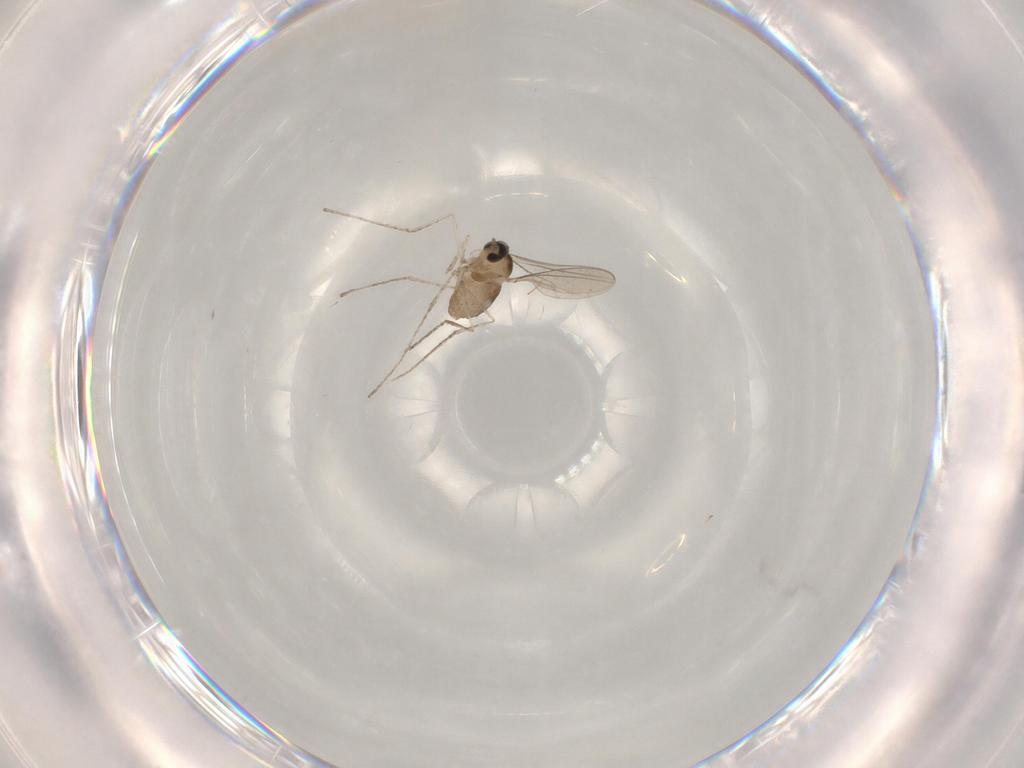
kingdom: Animalia
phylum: Arthropoda
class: Insecta
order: Diptera
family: Cecidomyiidae
